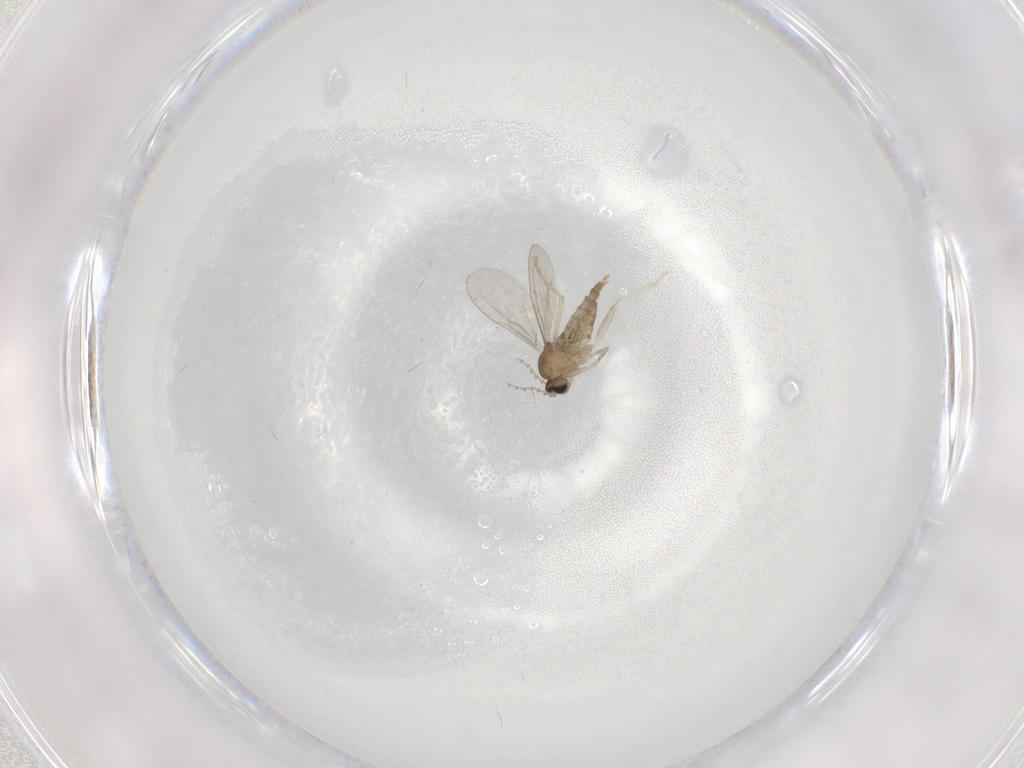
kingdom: Animalia
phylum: Arthropoda
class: Insecta
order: Diptera
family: Cecidomyiidae
